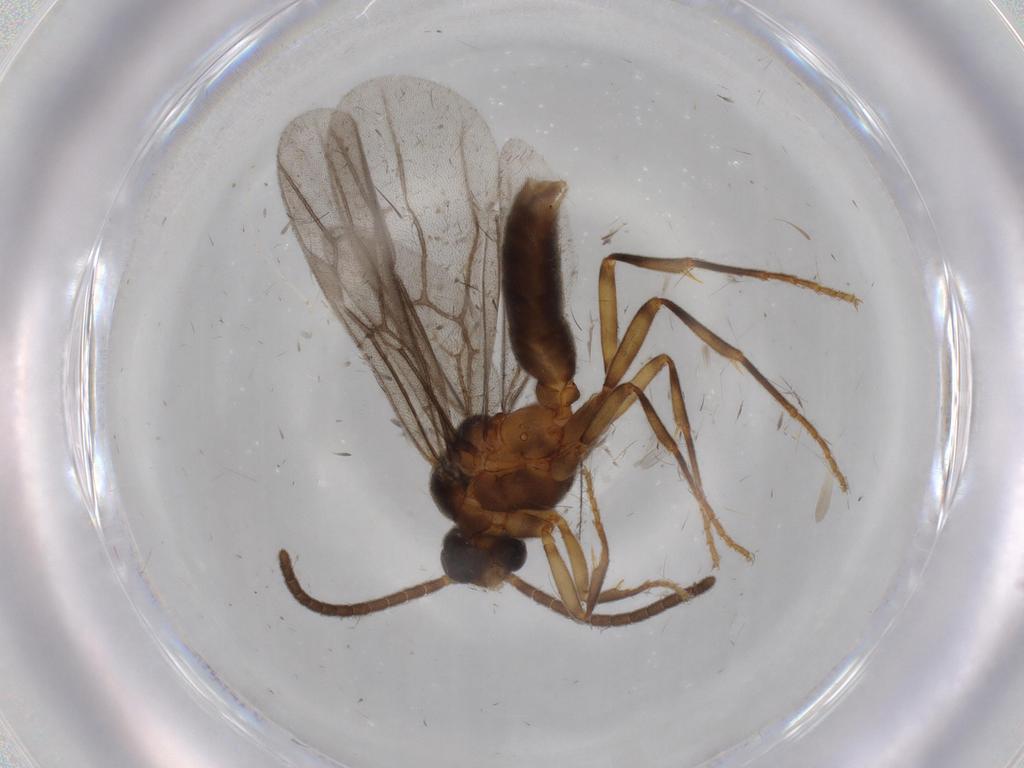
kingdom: Animalia
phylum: Arthropoda
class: Insecta
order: Hymenoptera
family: Formicidae
